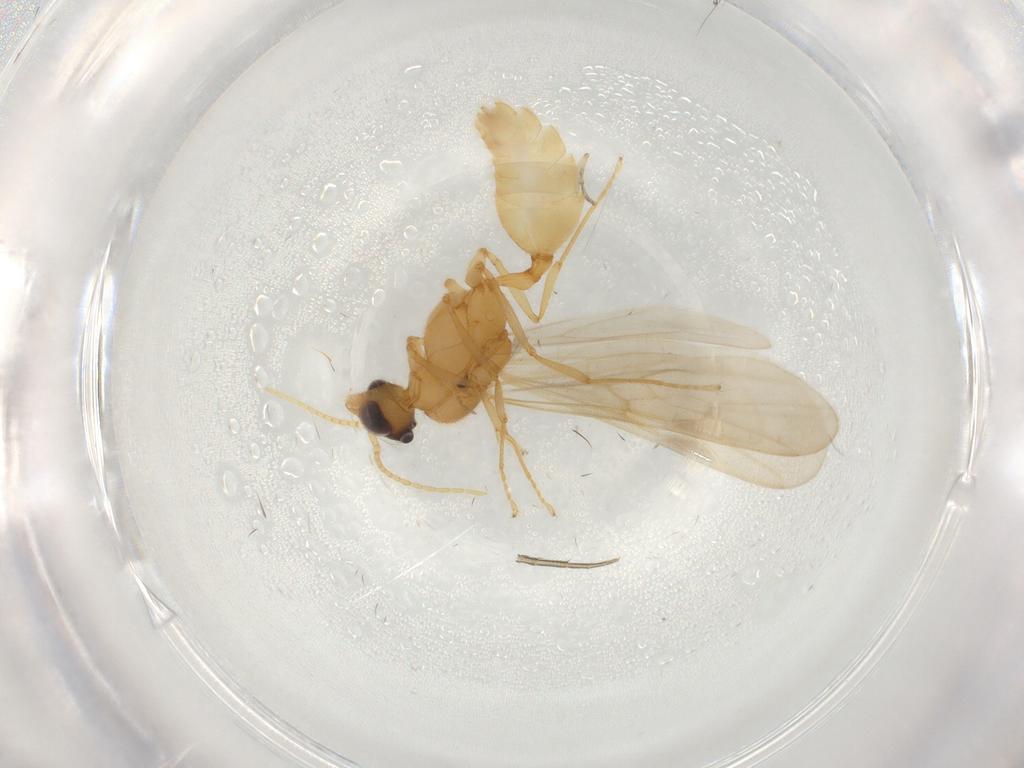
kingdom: Animalia
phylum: Arthropoda
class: Insecta
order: Hymenoptera
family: Formicidae
